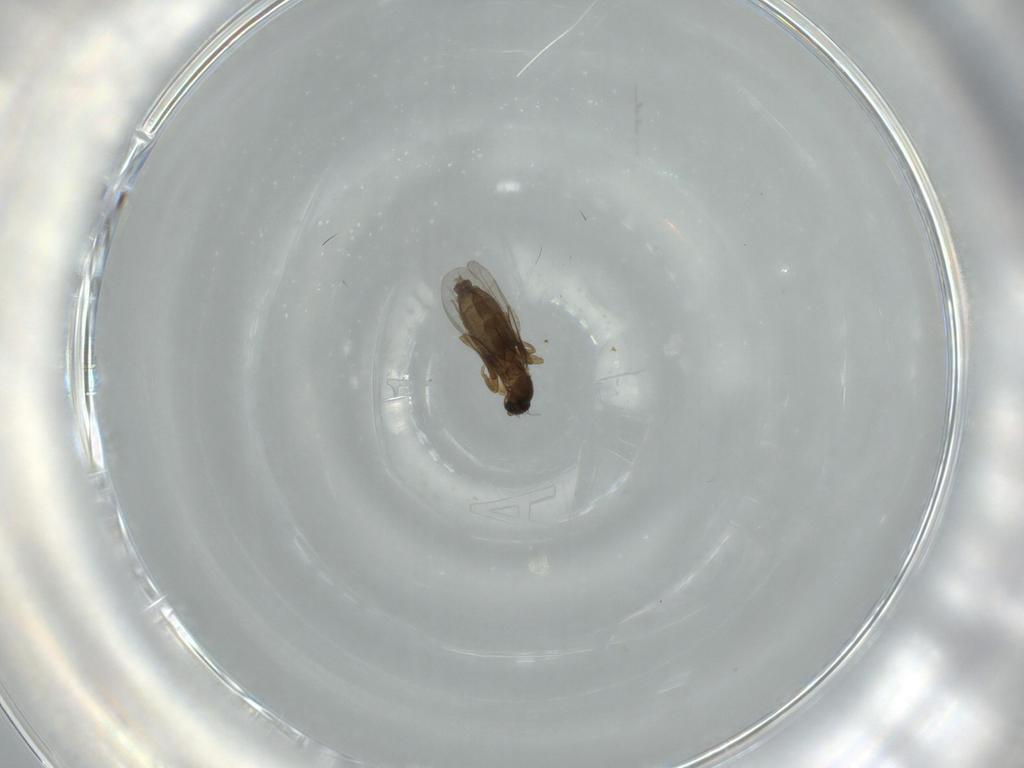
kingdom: Animalia
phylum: Arthropoda
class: Insecta
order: Diptera
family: Phoridae
